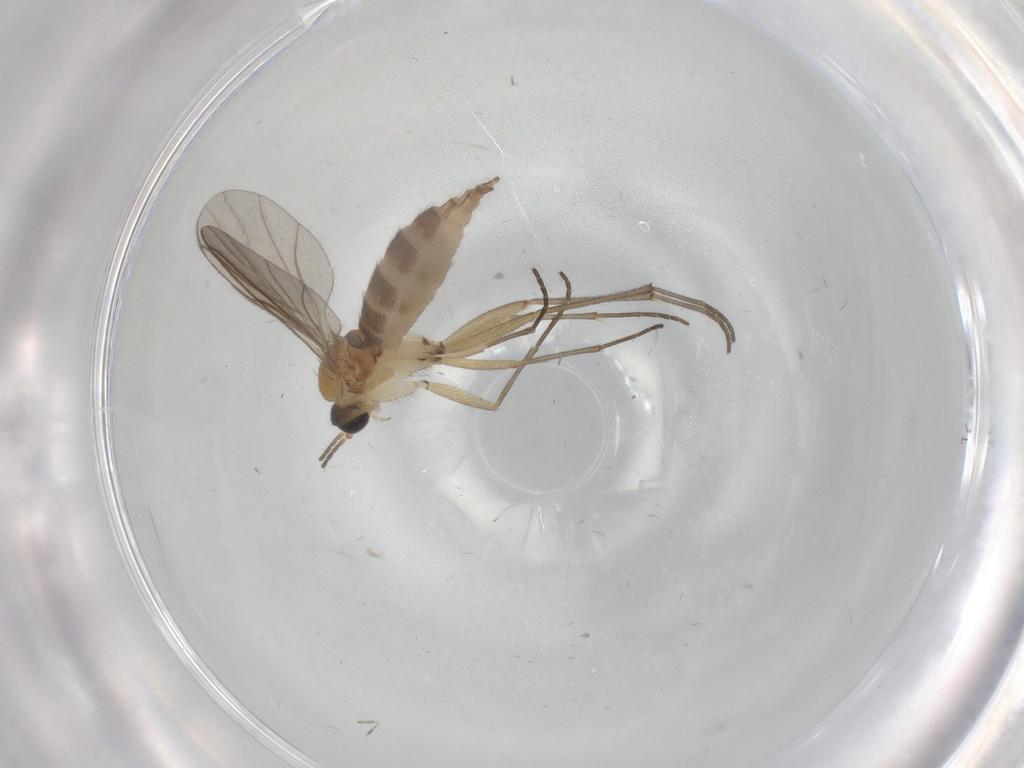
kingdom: Animalia
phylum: Arthropoda
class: Insecta
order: Diptera
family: Sciaridae
